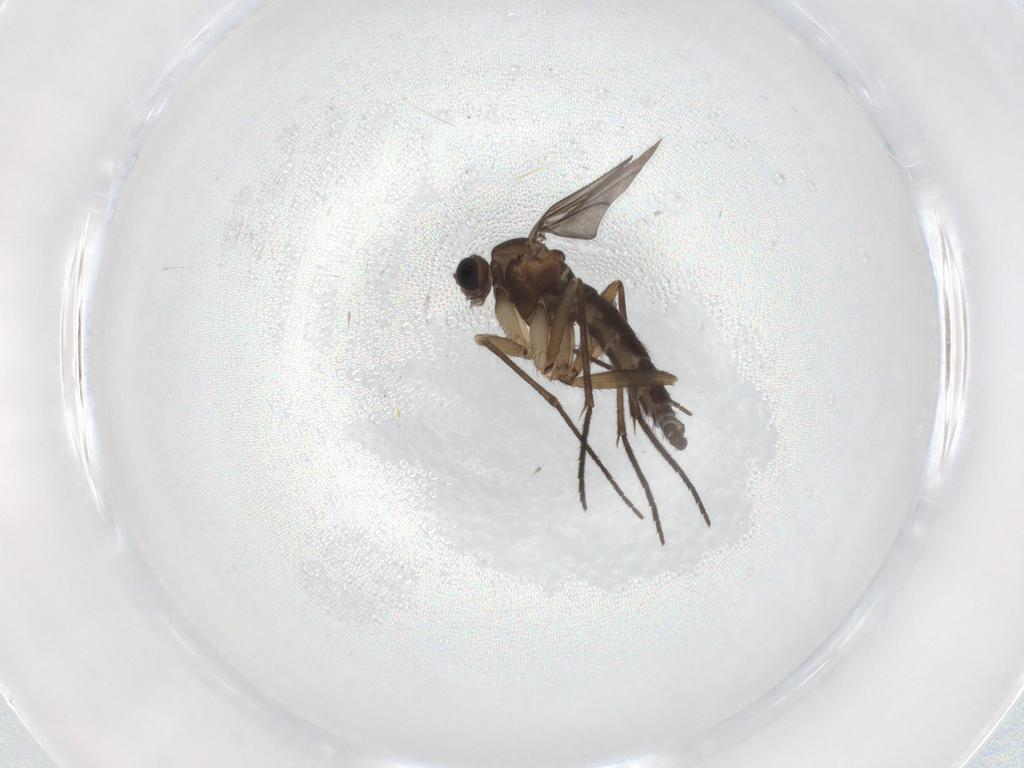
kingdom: Animalia
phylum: Arthropoda
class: Insecta
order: Diptera
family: Sciaridae
